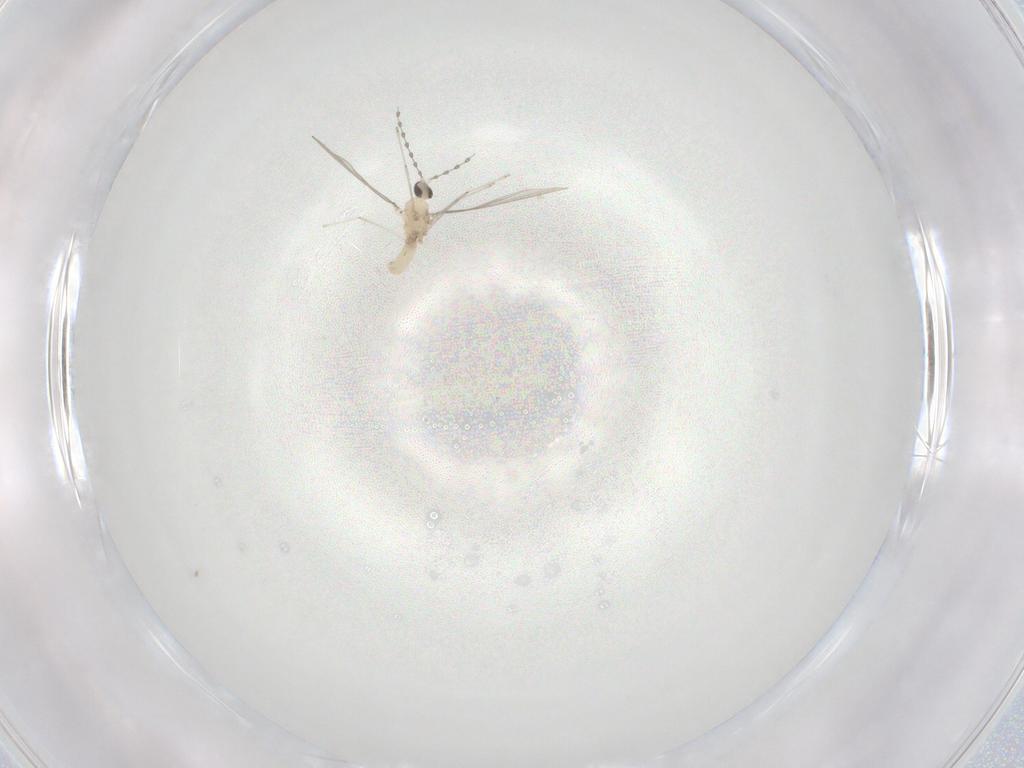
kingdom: Animalia
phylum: Arthropoda
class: Insecta
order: Diptera
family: Cecidomyiidae
